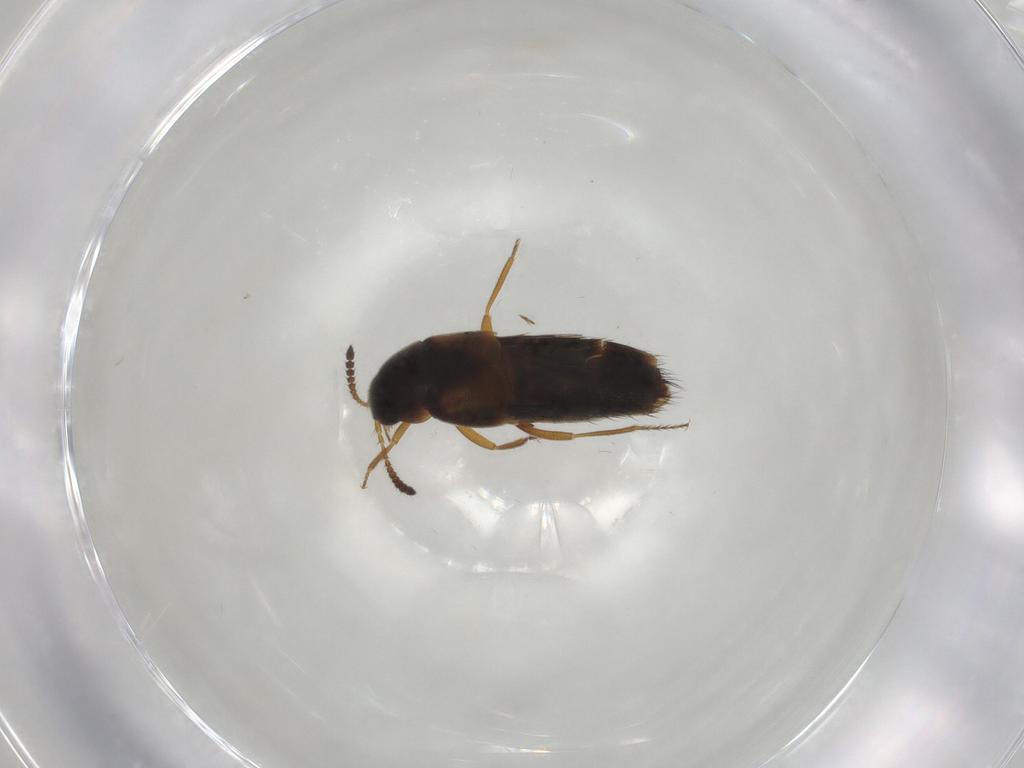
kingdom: Animalia
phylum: Arthropoda
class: Insecta
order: Coleoptera
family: Staphylinidae
